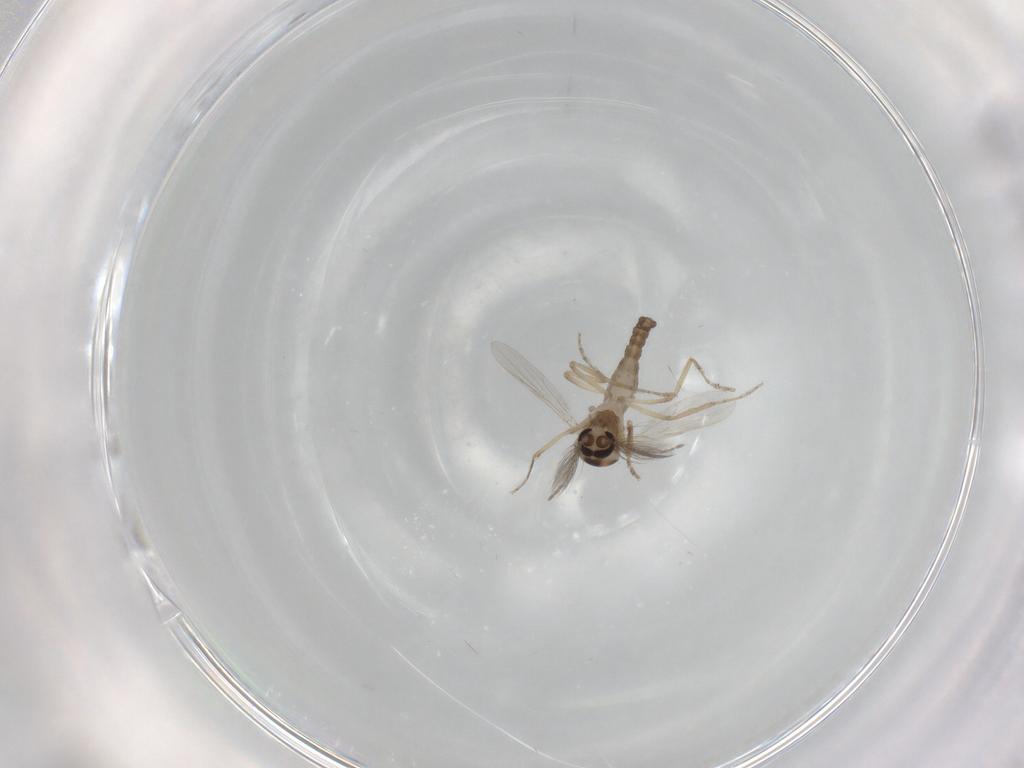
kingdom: Animalia
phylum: Arthropoda
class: Insecta
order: Diptera
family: Ceratopogonidae
